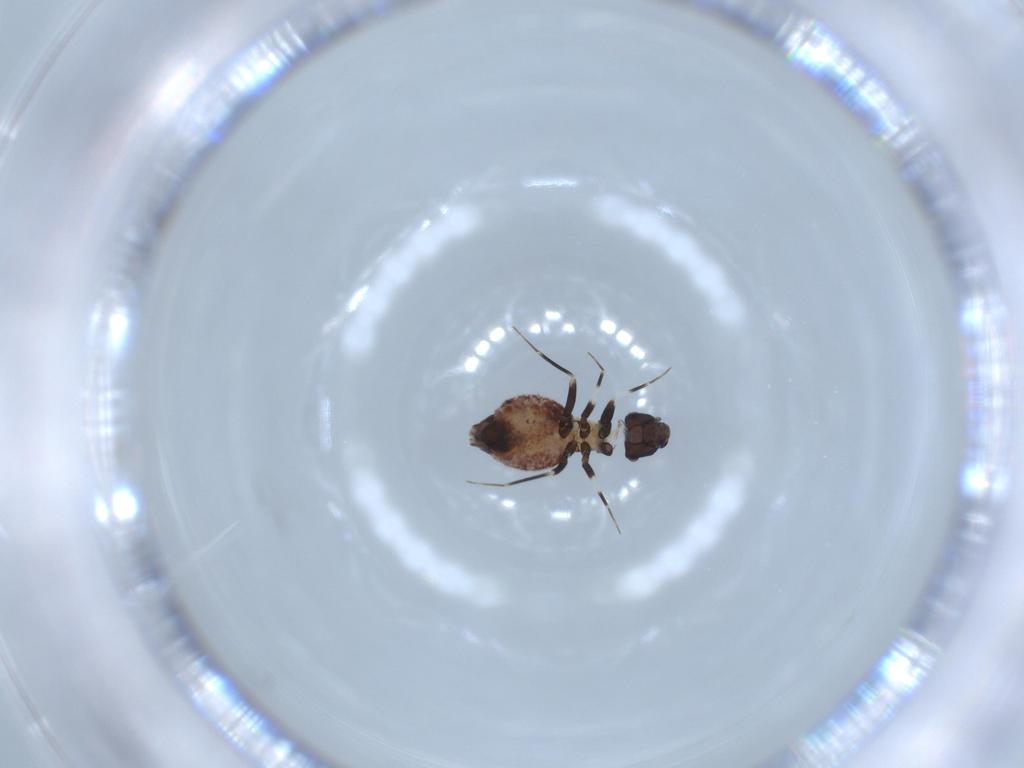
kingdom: Animalia
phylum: Arthropoda
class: Insecta
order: Psocodea
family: Lepidopsocidae
